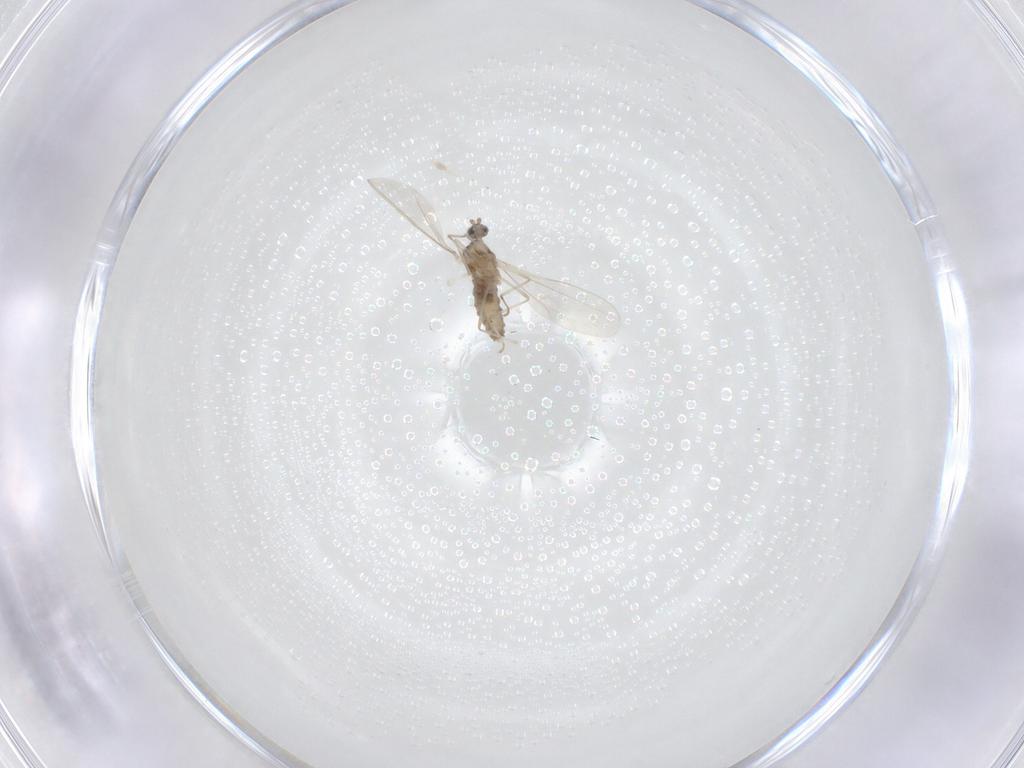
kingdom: Animalia
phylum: Arthropoda
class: Insecta
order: Diptera
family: Cecidomyiidae
